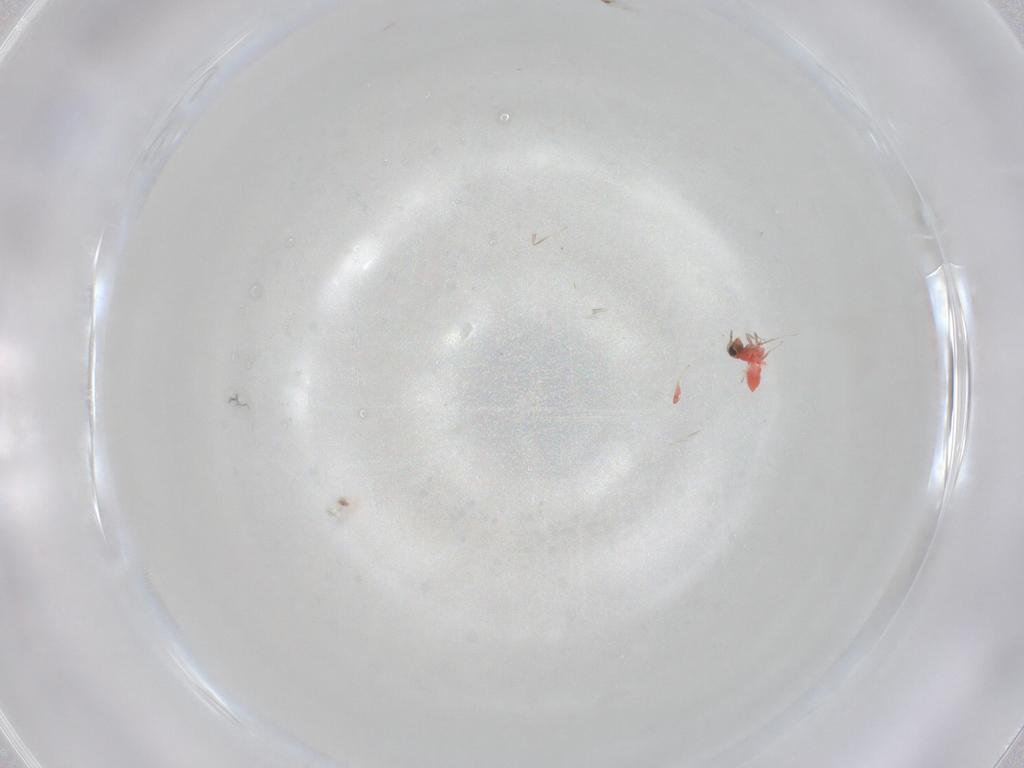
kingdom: Animalia
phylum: Arthropoda
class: Insecta
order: Hymenoptera
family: Trichogrammatidae
